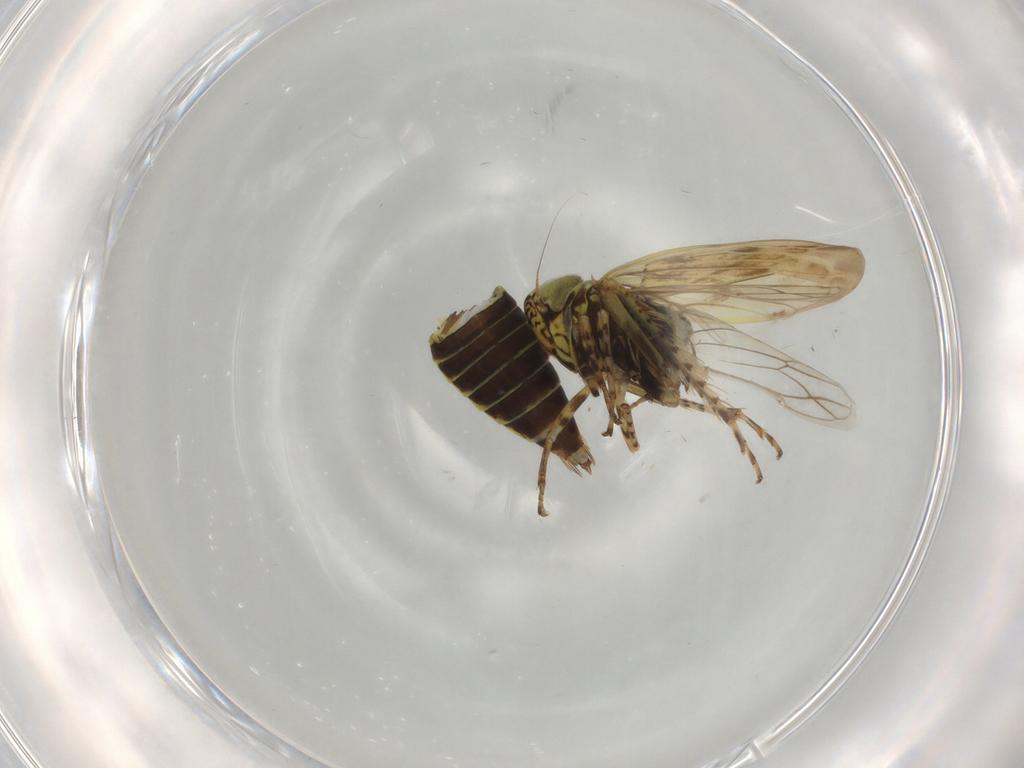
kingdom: Animalia
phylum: Arthropoda
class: Insecta
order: Hemiptera
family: Cicadellidae
